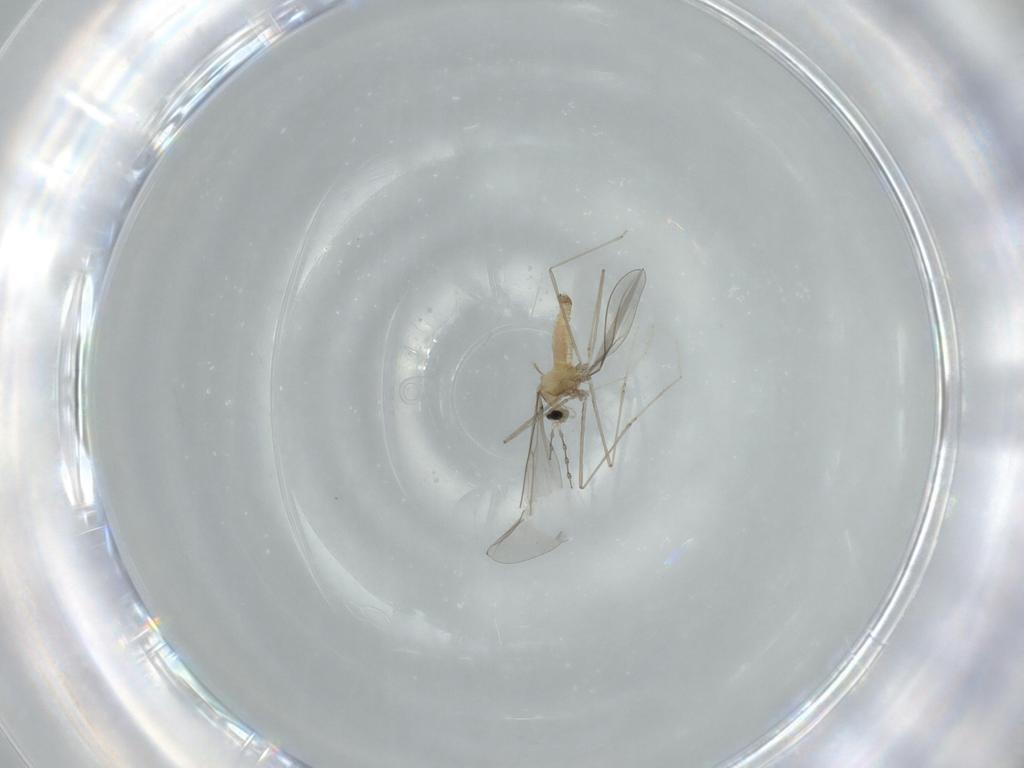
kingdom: Animalia
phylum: Arthropoda
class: Insecta
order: Diptera
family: Cecidomyiidae
